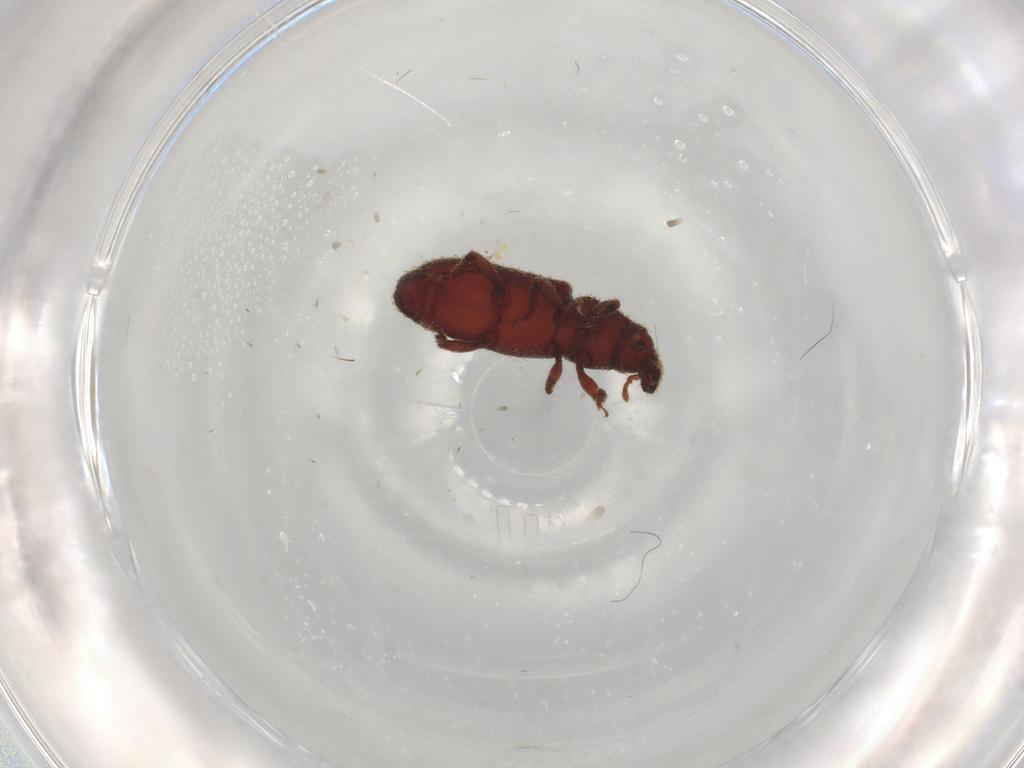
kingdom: Animalia
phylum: Arthropoda
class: Insecta
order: Coleoptera
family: Curculionidae
